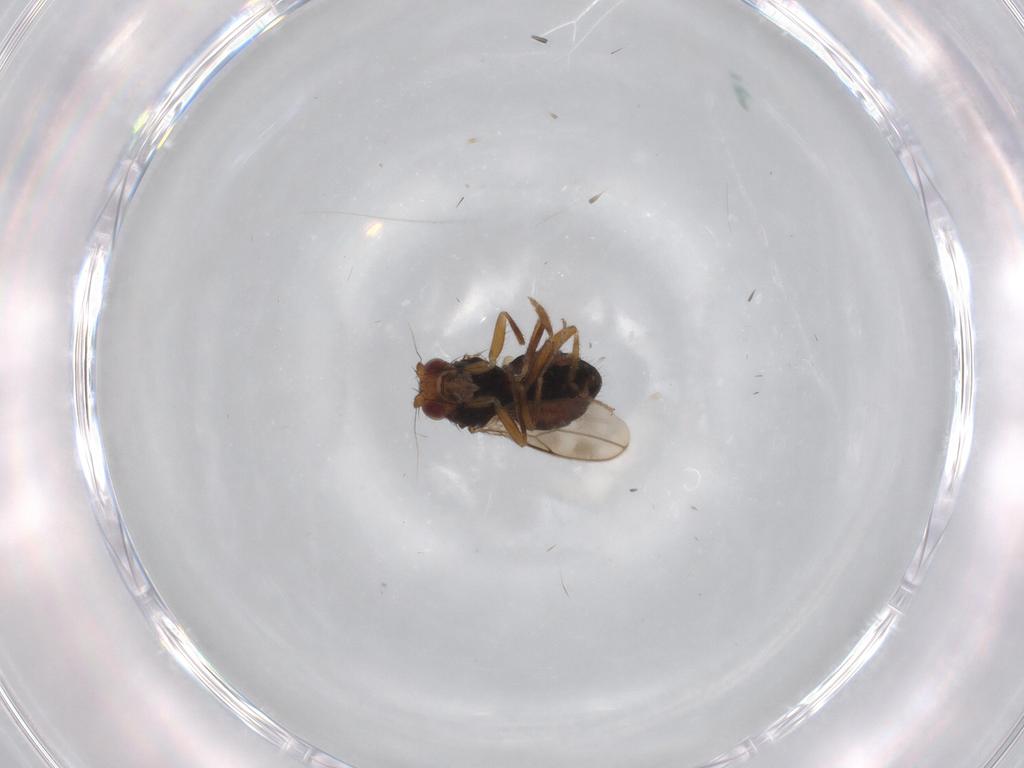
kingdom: Animalia
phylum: Arthropoda
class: Insecta
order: Diptera
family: Sphaeroceridae
